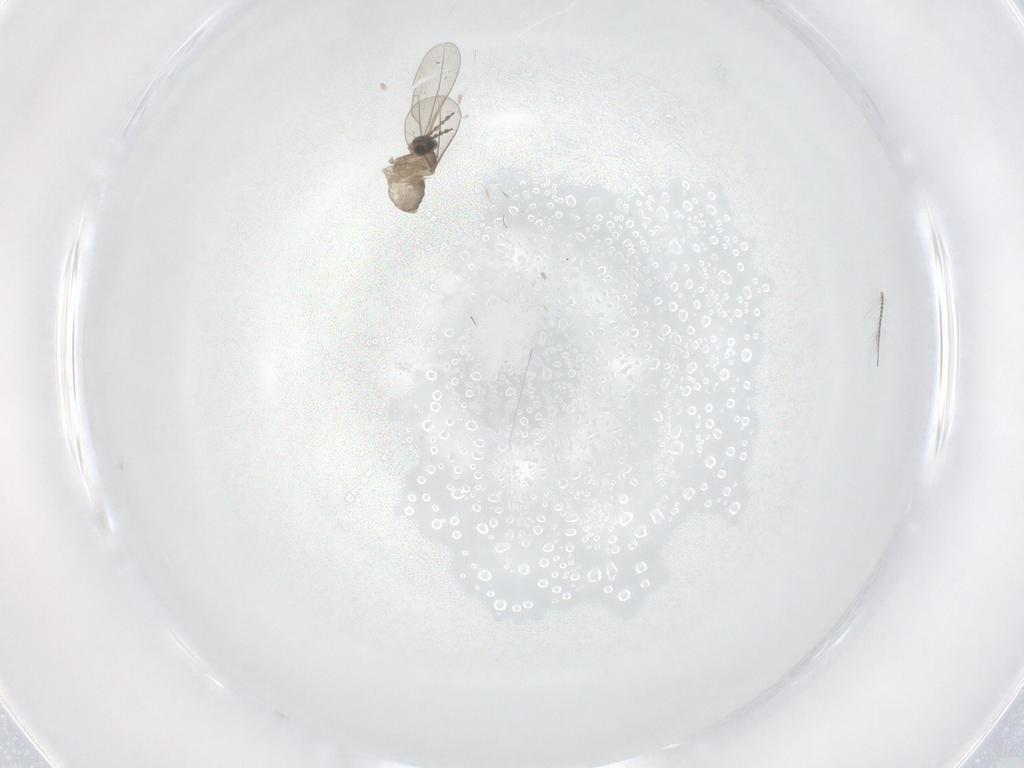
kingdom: Animalia
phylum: Arthropoda
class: Insecta
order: Diptera
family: Cecidomyiidae
